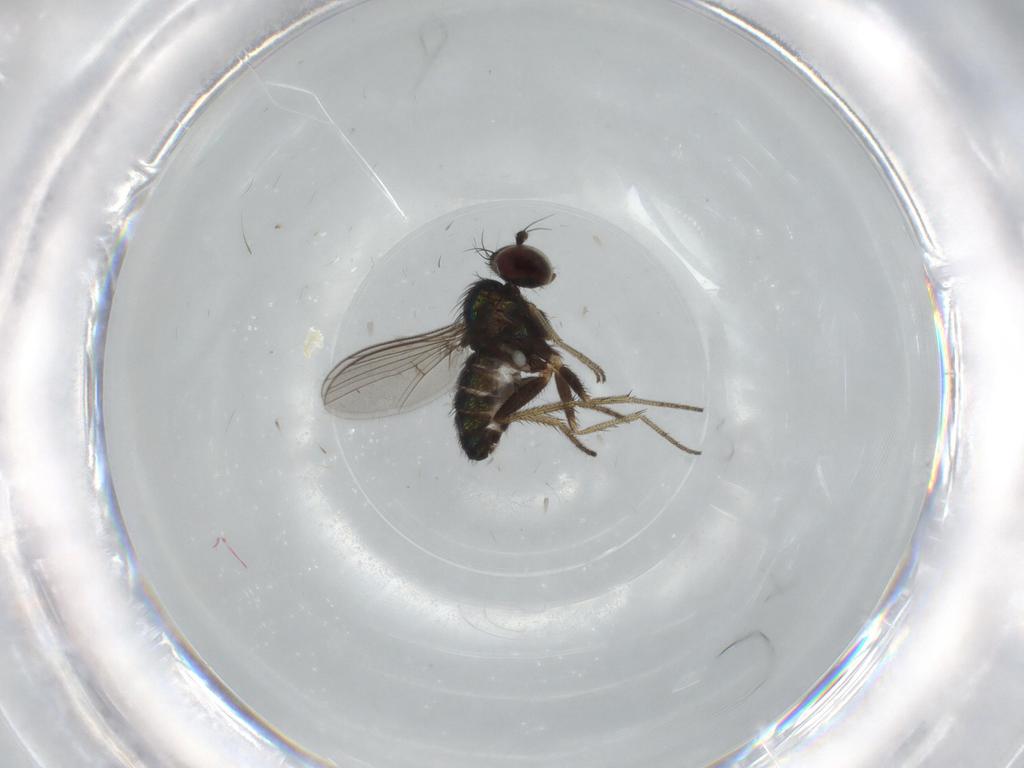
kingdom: Animalia
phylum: Arthropoda
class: Insecta
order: Diptera
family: Dolichopodidae
